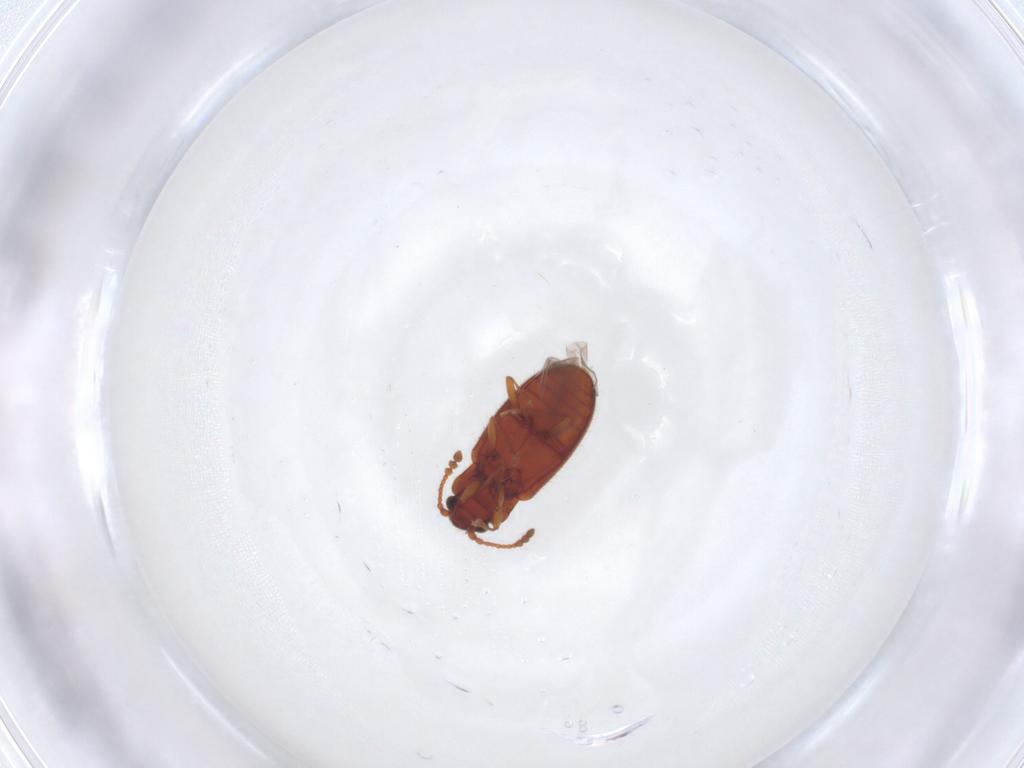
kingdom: Animalia
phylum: Arthropoda
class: Insecta
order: Coleoptera
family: Cryptophagidae
